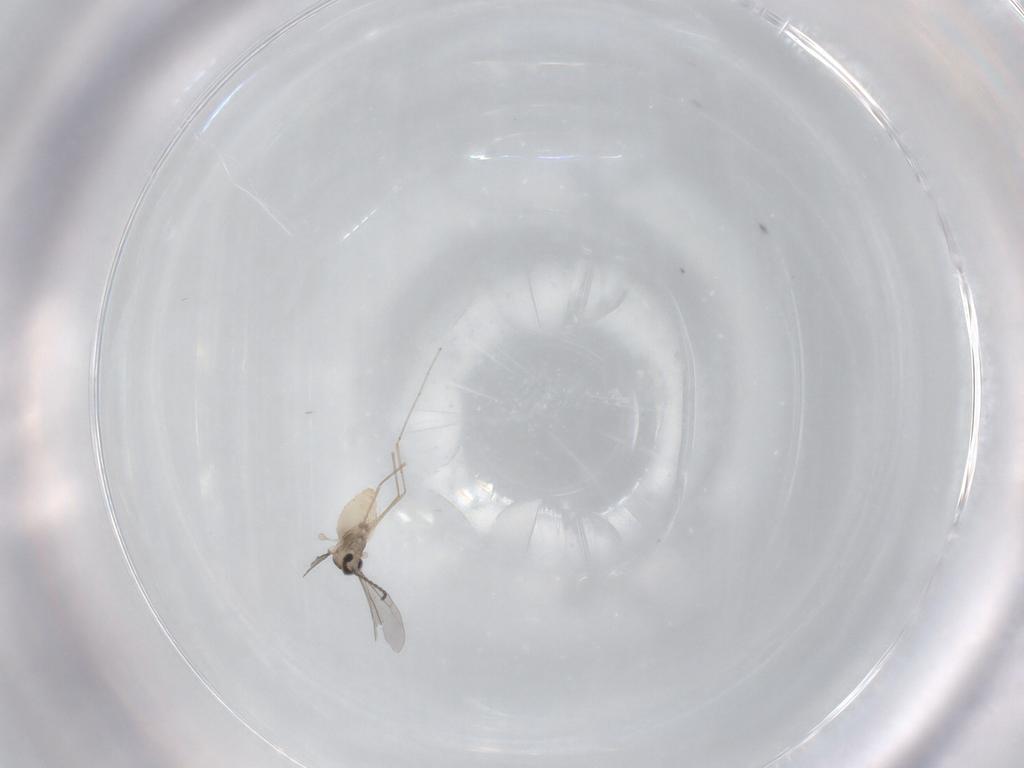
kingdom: Animalia
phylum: Arthropoda
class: Insecta
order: Diptera
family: Cecidomyiidae
